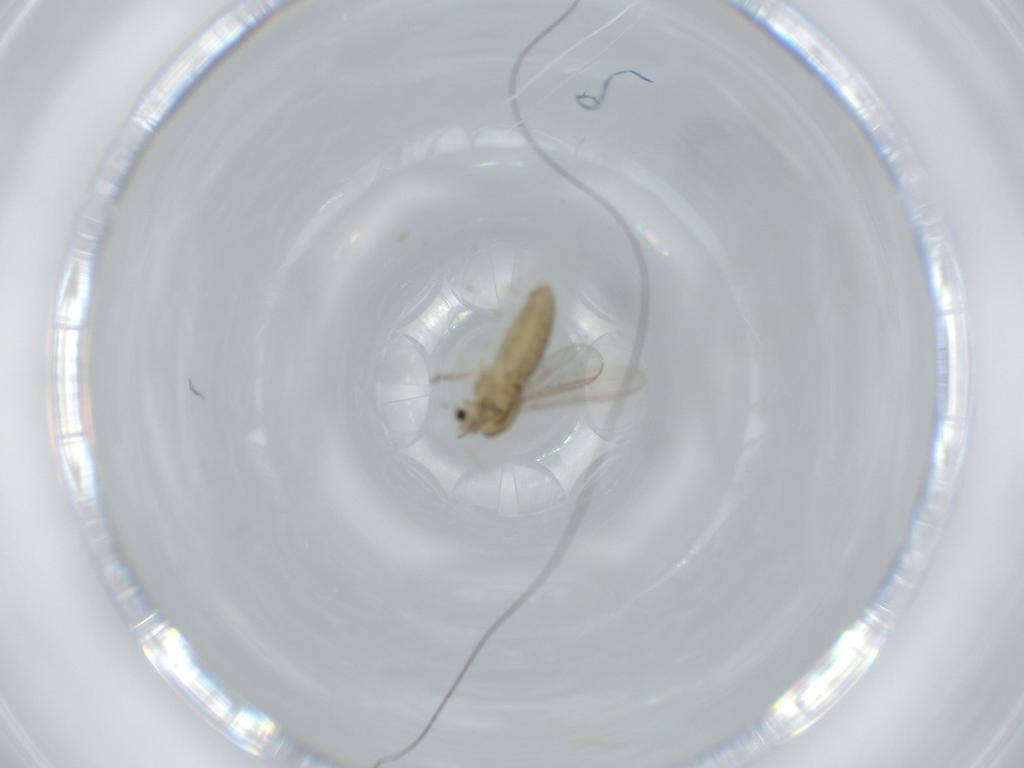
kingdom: Animalia
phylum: Arthropoda
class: Insecta
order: Diptera
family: Chironomidae
